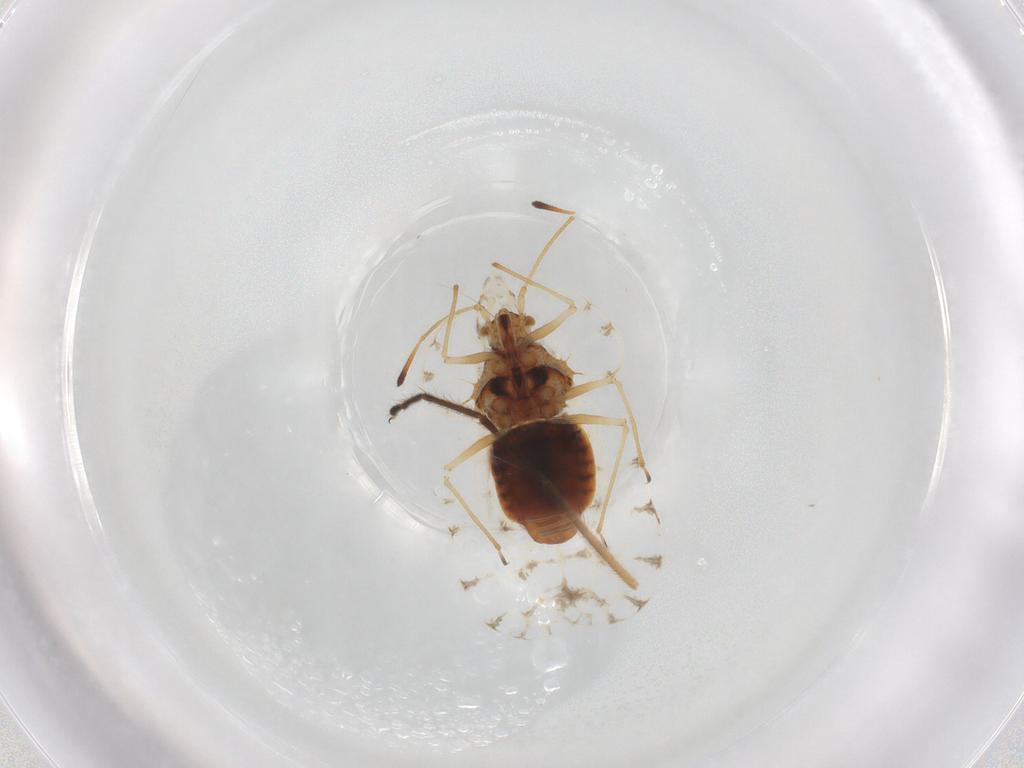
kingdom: Animalia
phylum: Arthropoda
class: Insecta
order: Hemiptera
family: Tingidae
